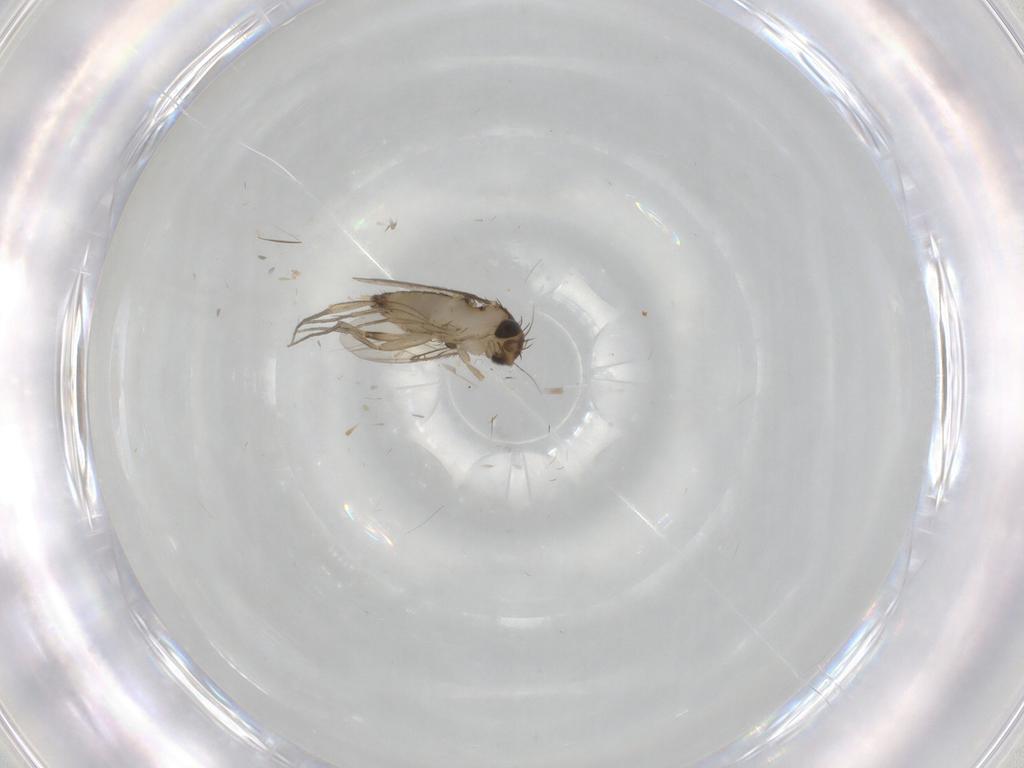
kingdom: Animalia
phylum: Arthropoda
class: Insecta
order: Diptera
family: Phoridae
